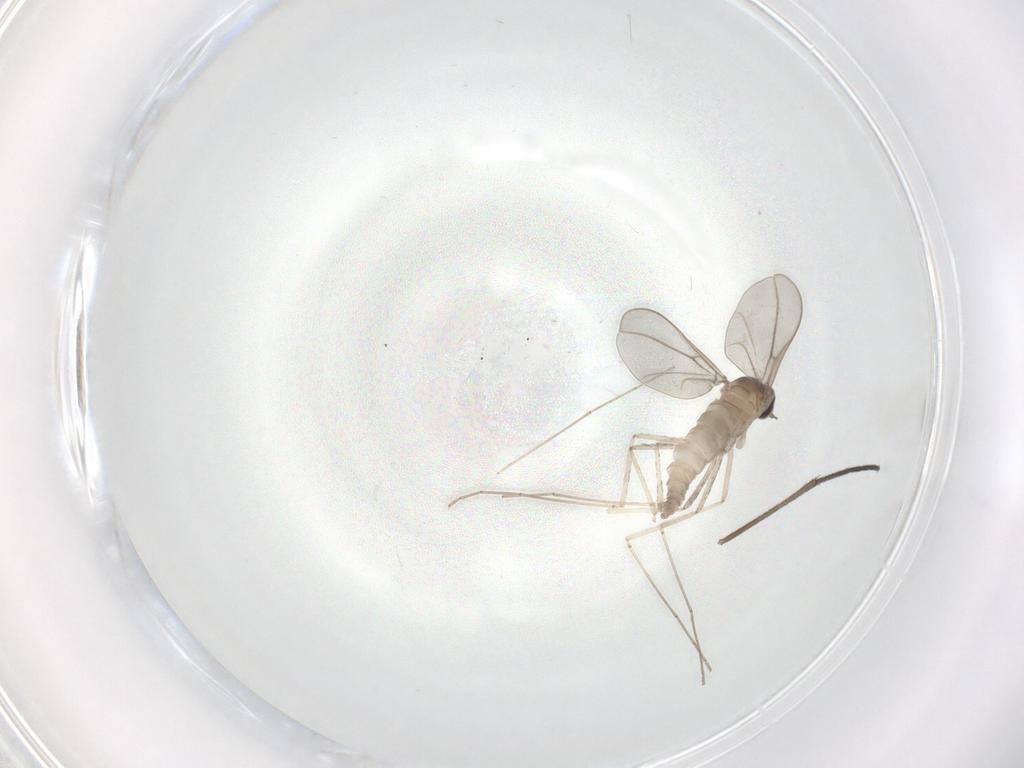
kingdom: Animalia
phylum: Arthropoda
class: Insecta
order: Diptera
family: Cecidomyiidae
